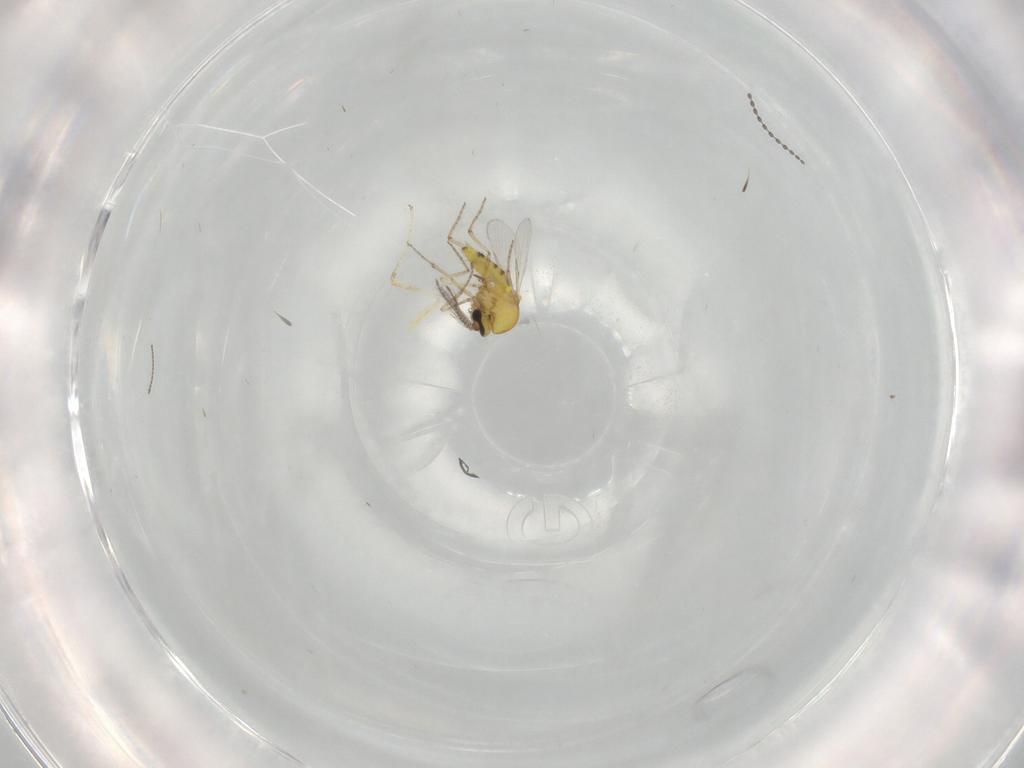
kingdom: Animalia
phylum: Arthropoda
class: Insecta
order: Diptera
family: Ceratopogonidae
